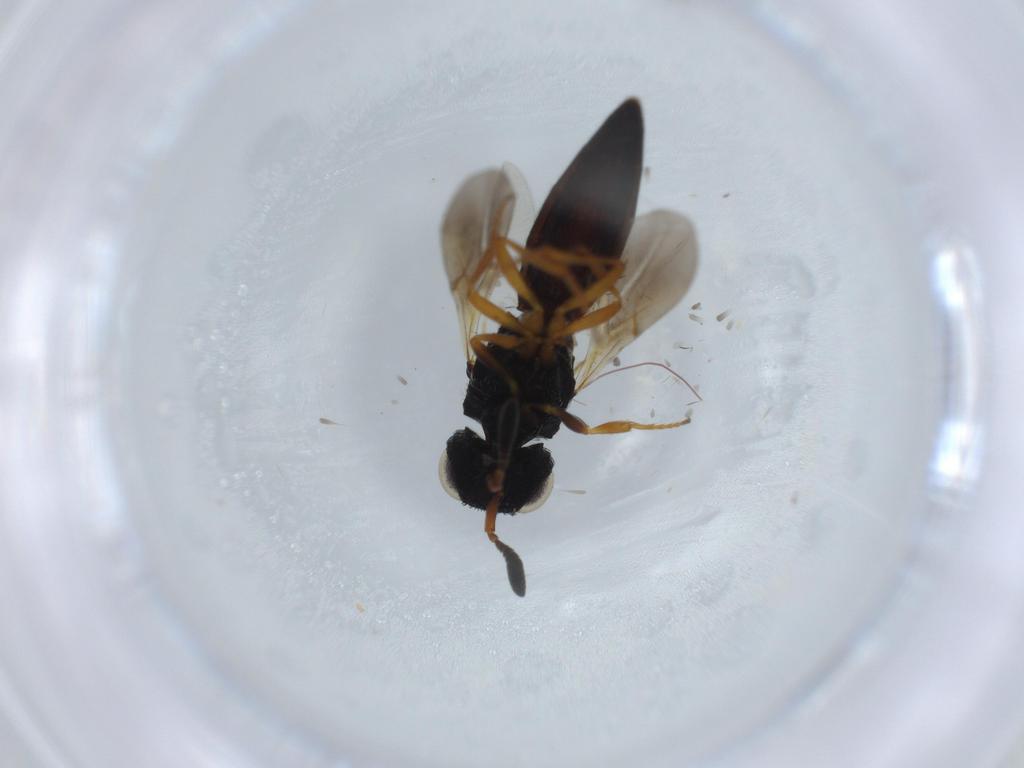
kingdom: Animalia
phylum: Arthropoda
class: Insecta
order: Hymenoptera
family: Scelionidae
